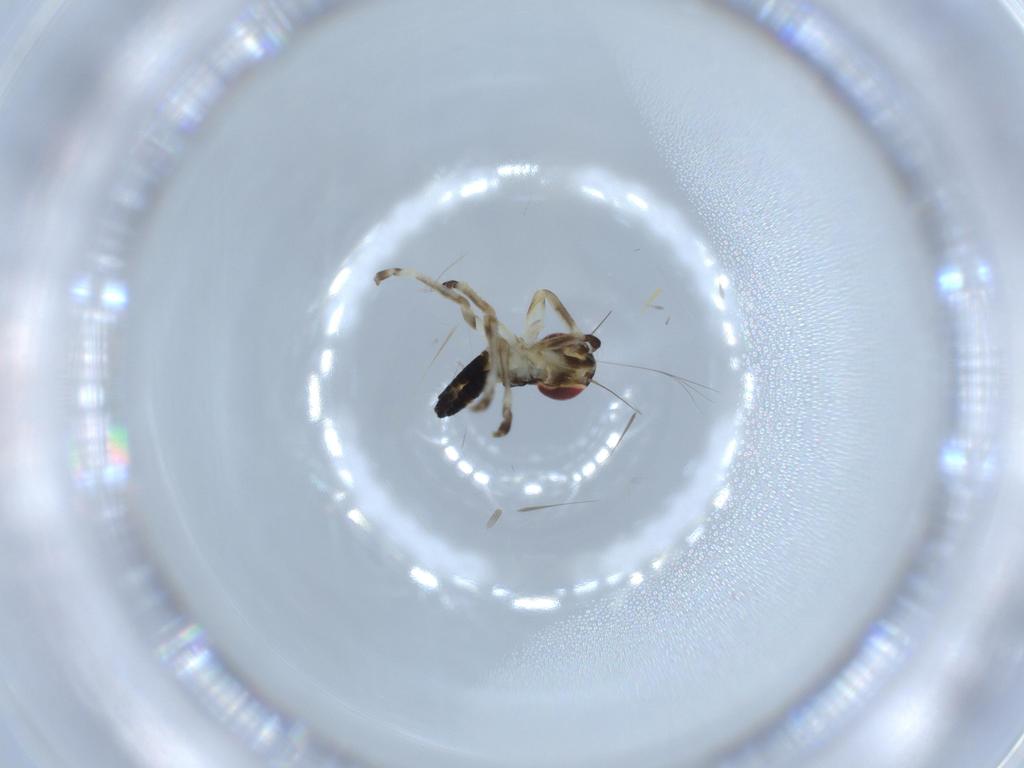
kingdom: Animalia
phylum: Arthropoda
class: Insecta
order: Hemiptera
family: Cicadellidae
